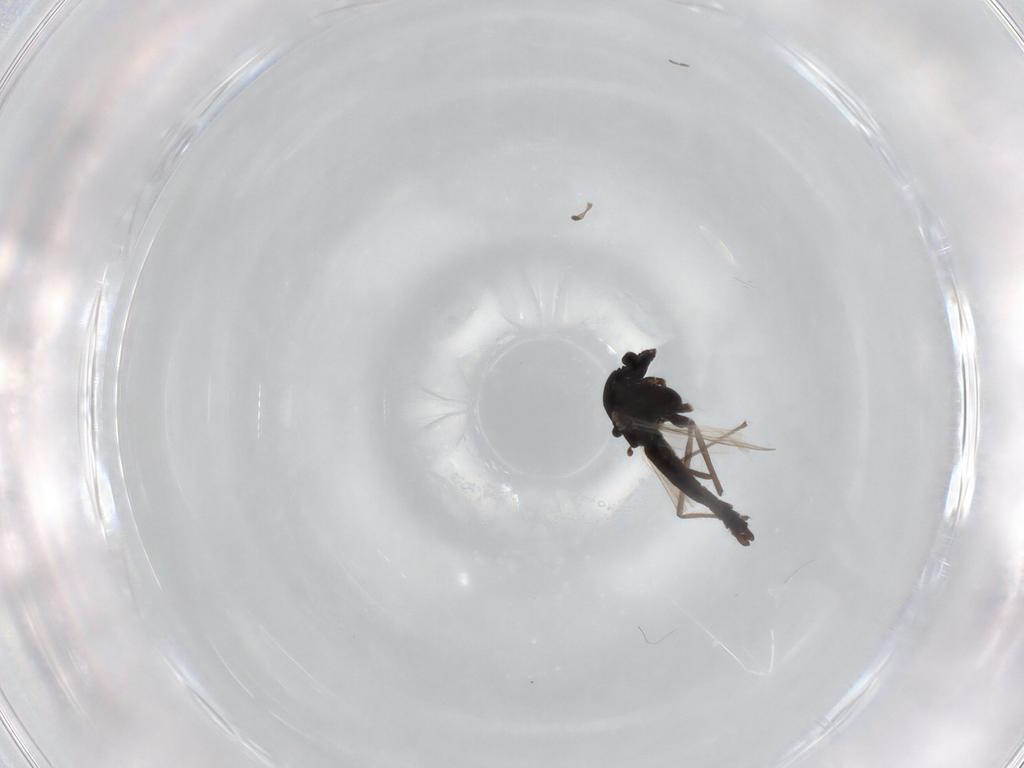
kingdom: Animalia
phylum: Arthropoda
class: Insecta
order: Diptera
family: Chironomidae
